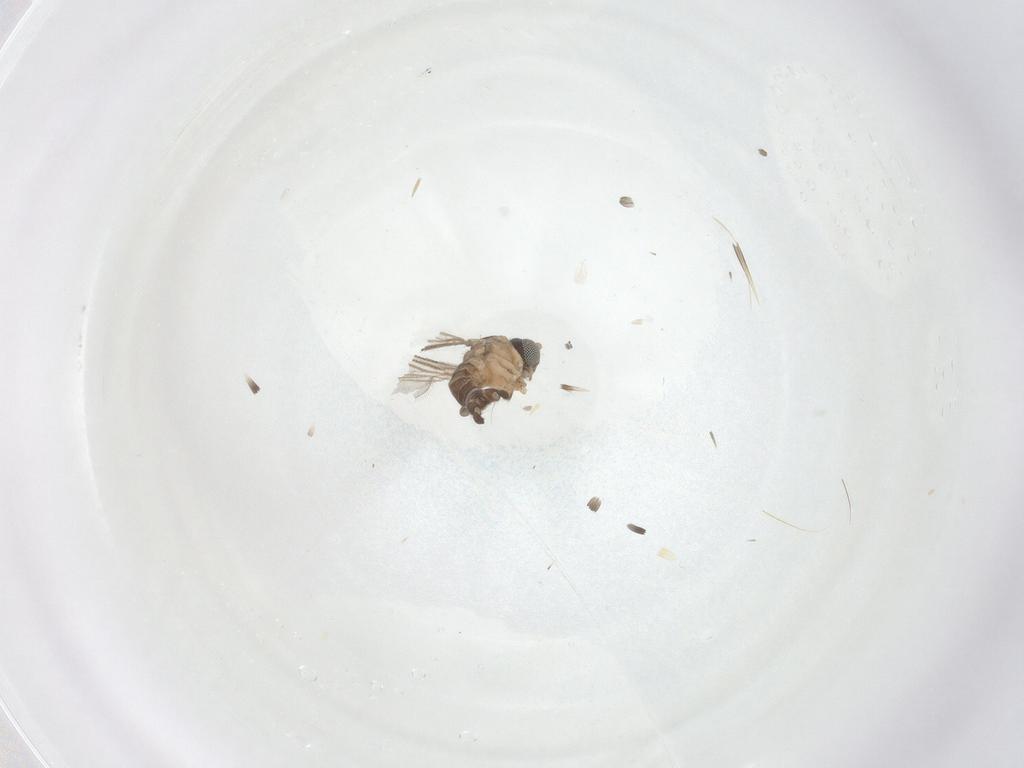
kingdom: Animalia
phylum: Arthropoda
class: Insecta
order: Diptera
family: Sciaridae
